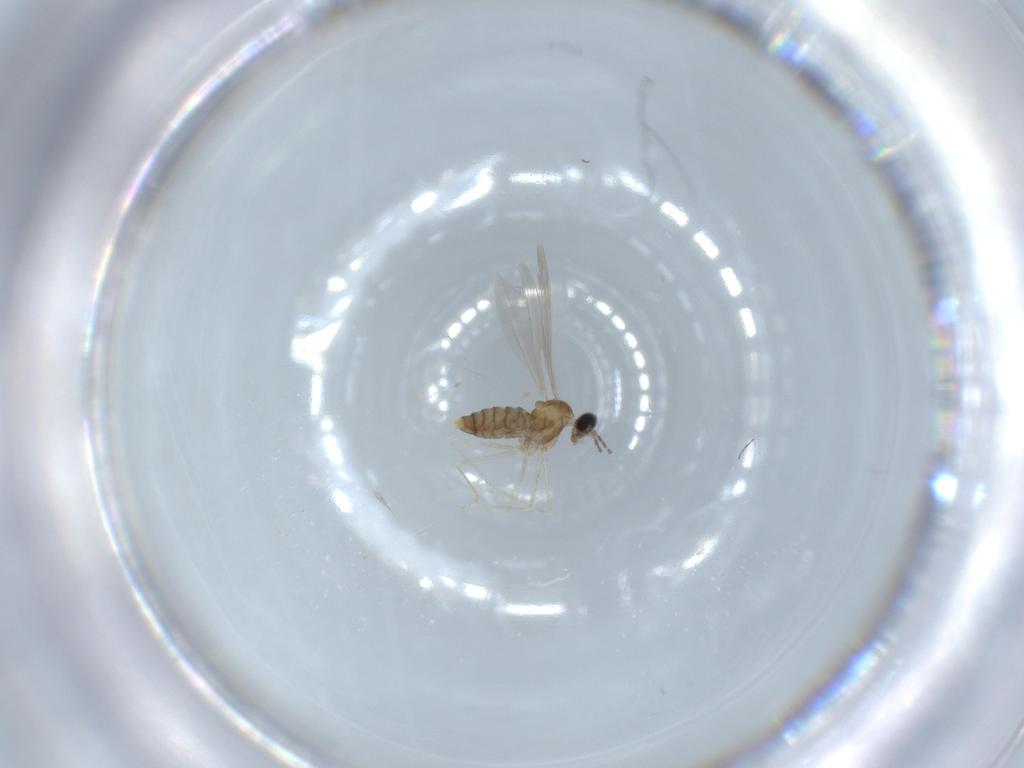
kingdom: Animalia
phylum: Arthropoda
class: Insecta
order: Diptera
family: Cecidomyiidae
